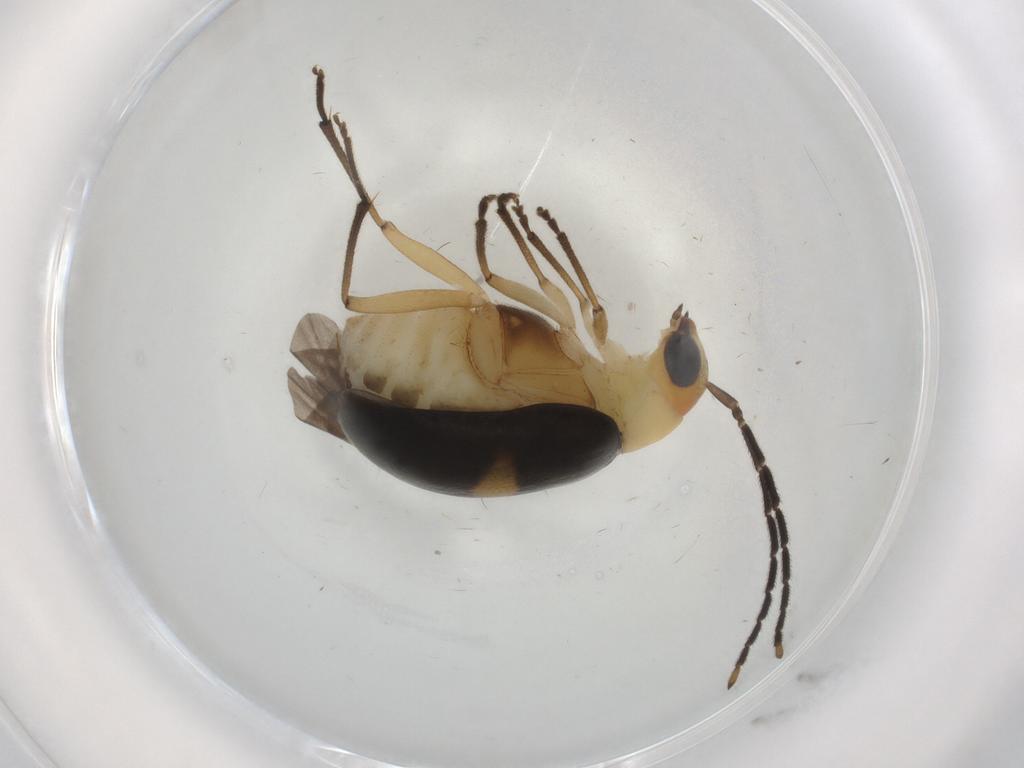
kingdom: Animalia
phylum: Arthropoda
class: Insecta
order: Coleoptera
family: Chrysomelidae
